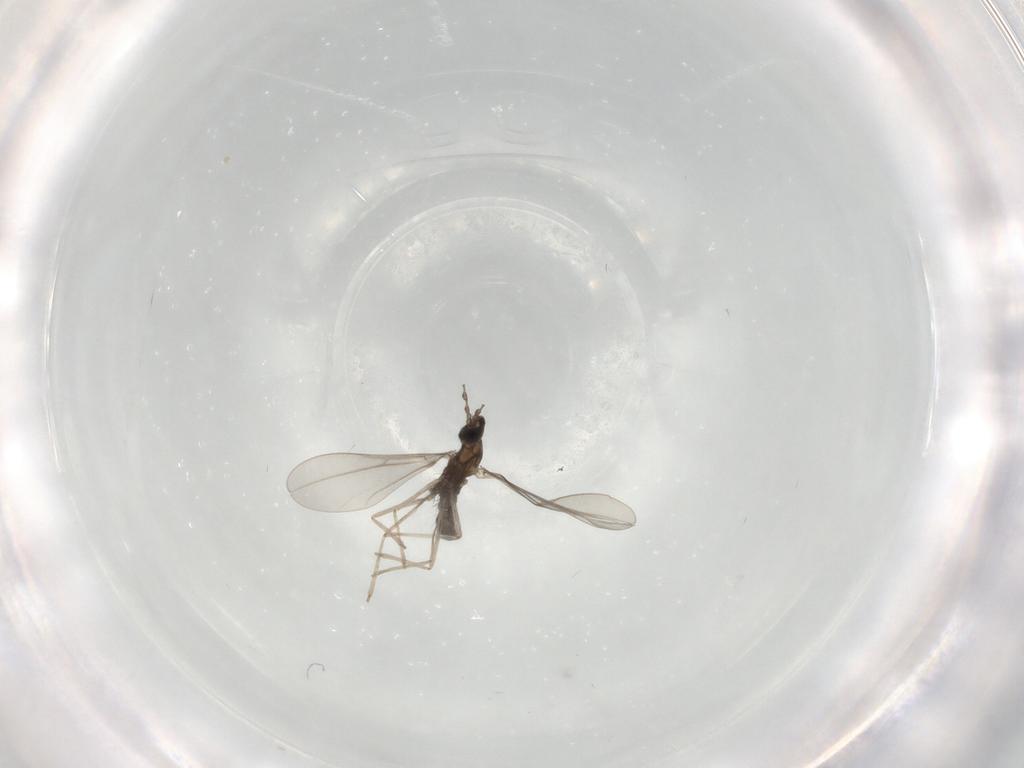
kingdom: Animalia
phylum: Arthropoda
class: Insecta
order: Diptera
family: Cecidomyiidae
